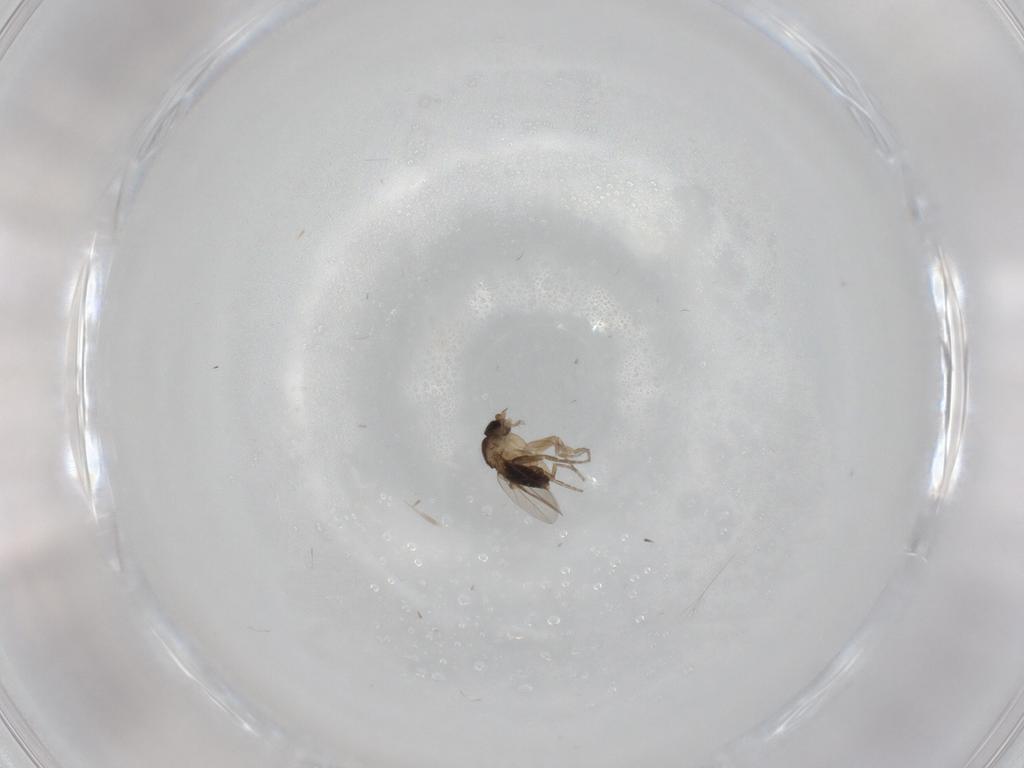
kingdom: Animalia
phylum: Arthropoda
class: Insecta
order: Diptera
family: Phoridae
